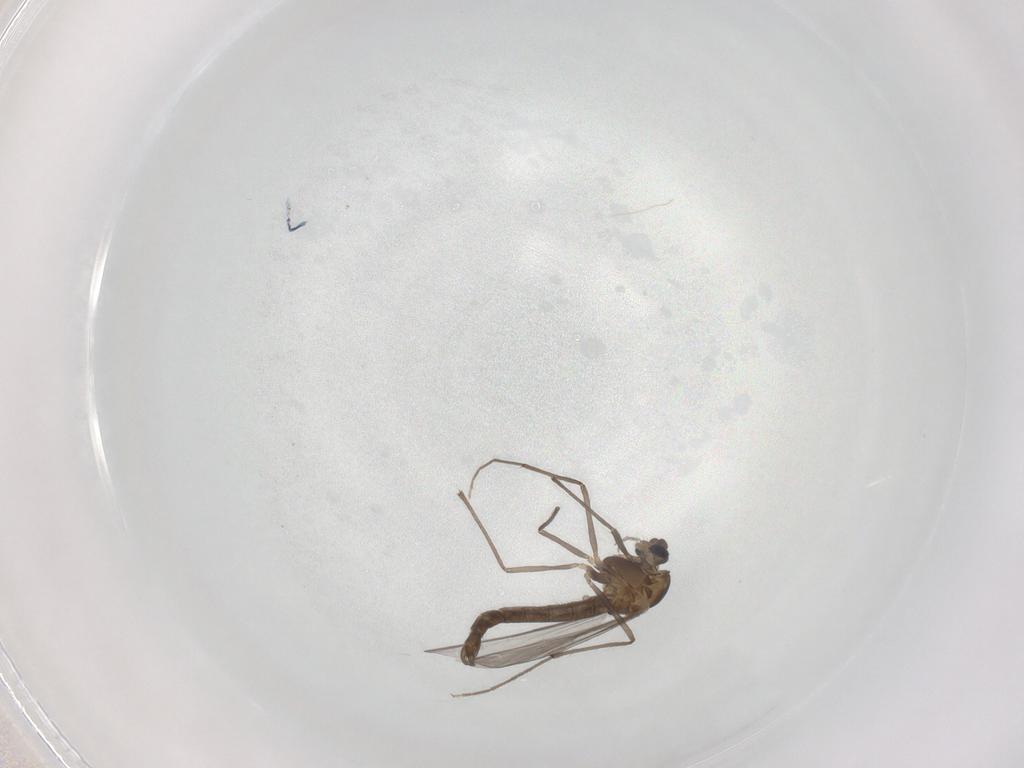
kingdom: Animalia
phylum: Arthropoda
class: Insecta
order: Diptera
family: Chironomidae
